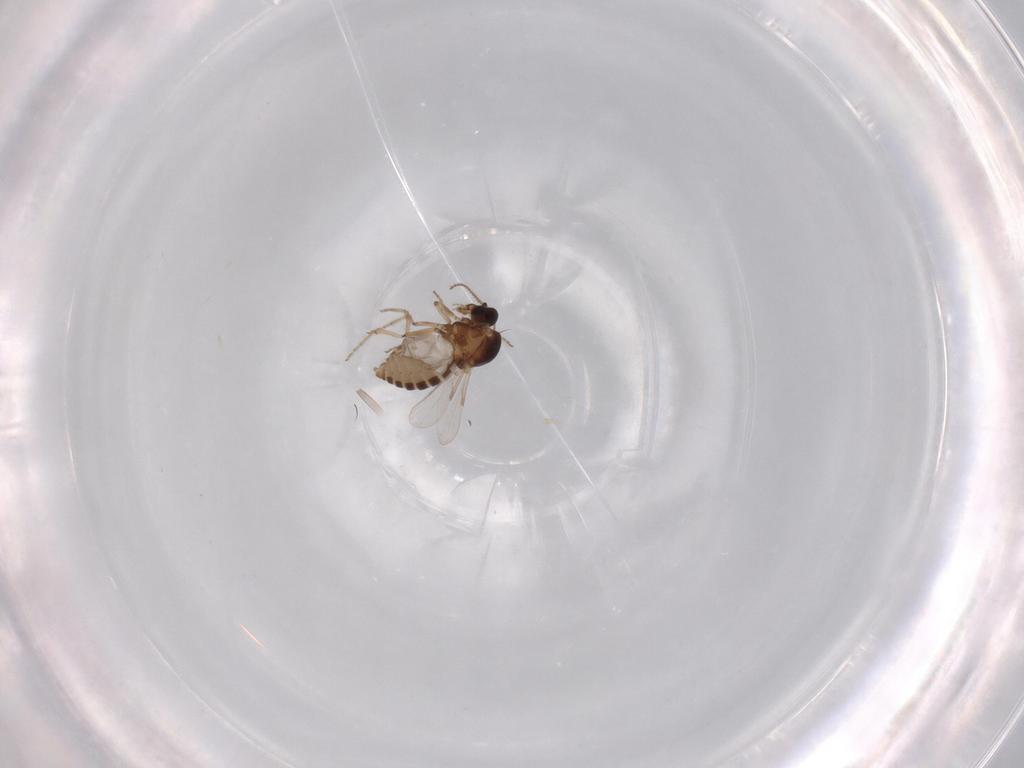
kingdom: Animalia
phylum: Arthropoda
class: Insecta
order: Diptera
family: Ceratopogonidae
